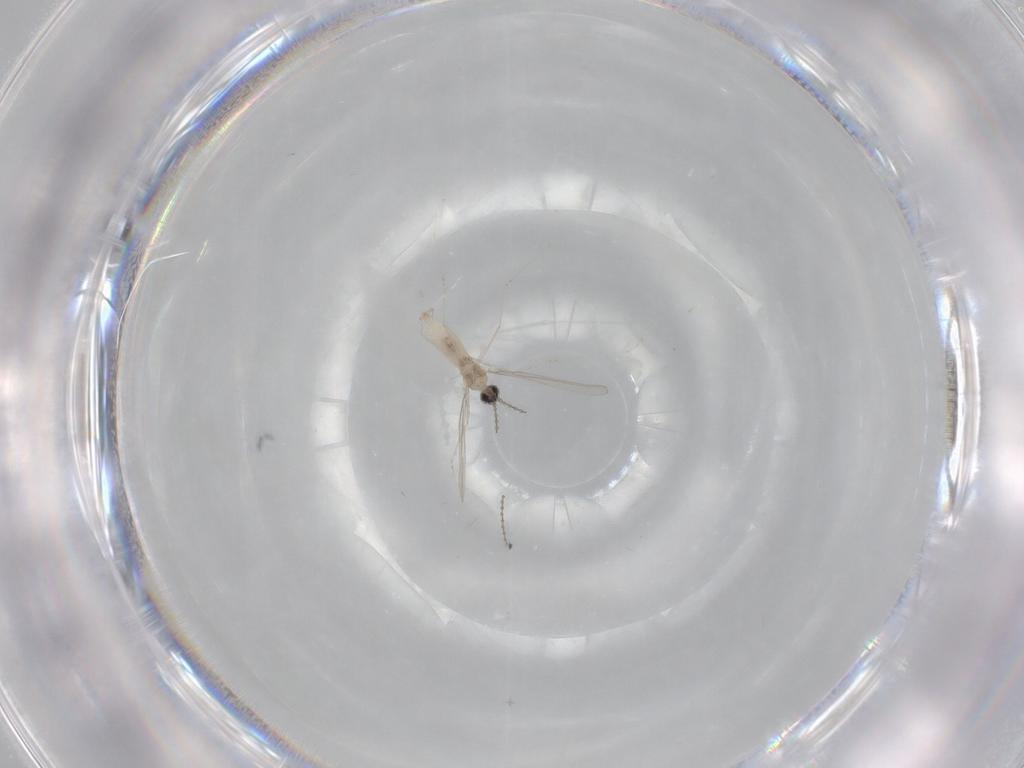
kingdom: Animalia
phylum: Arthropoda
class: Insecta
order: Diptera
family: Cecidomyiidae
